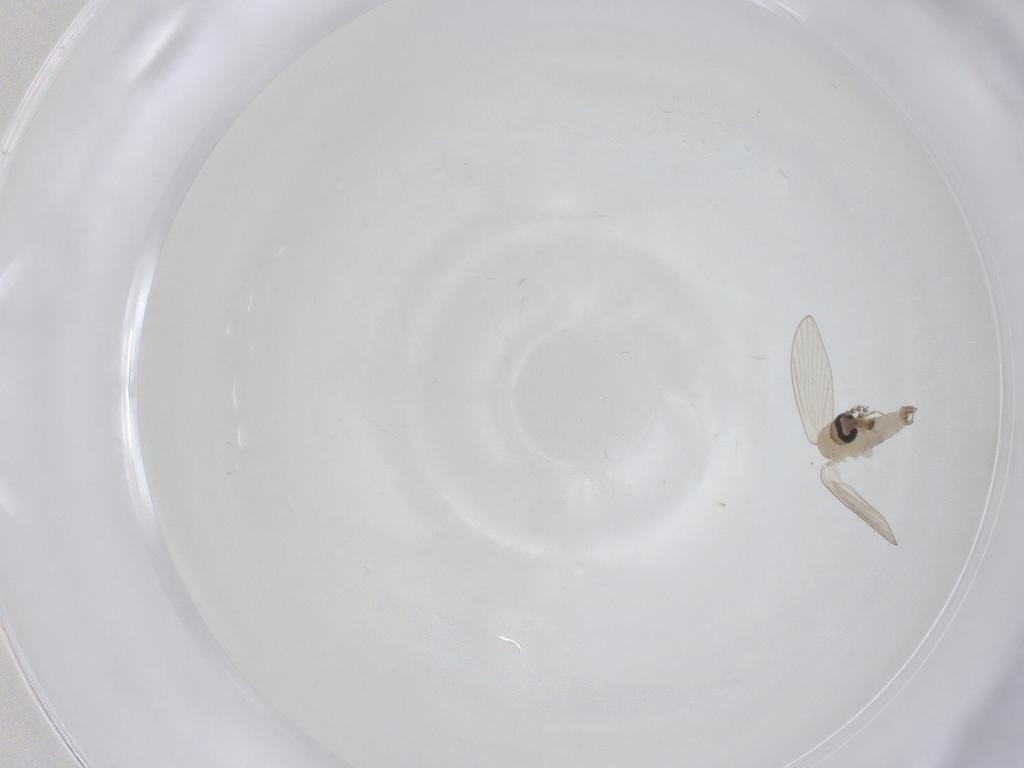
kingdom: Animalia
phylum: Arthropoda
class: Insecta
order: Diptera
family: Psychodidae
